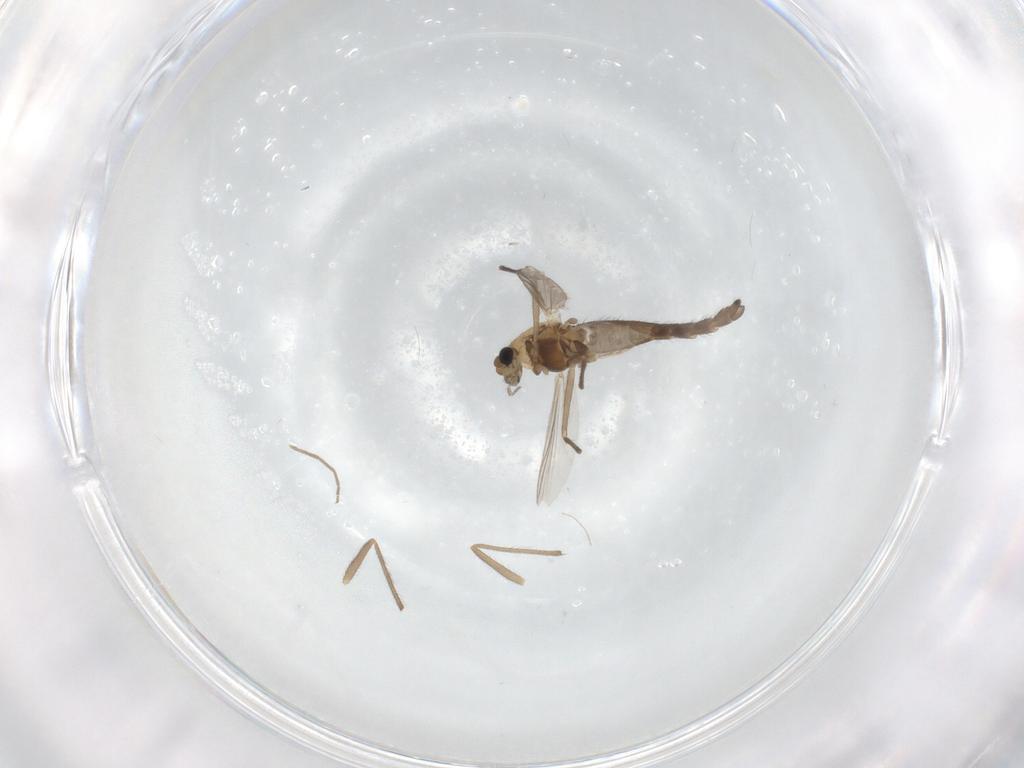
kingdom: Animalia
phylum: Arthropoda
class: Insecta
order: Diptera
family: Chironomidae
